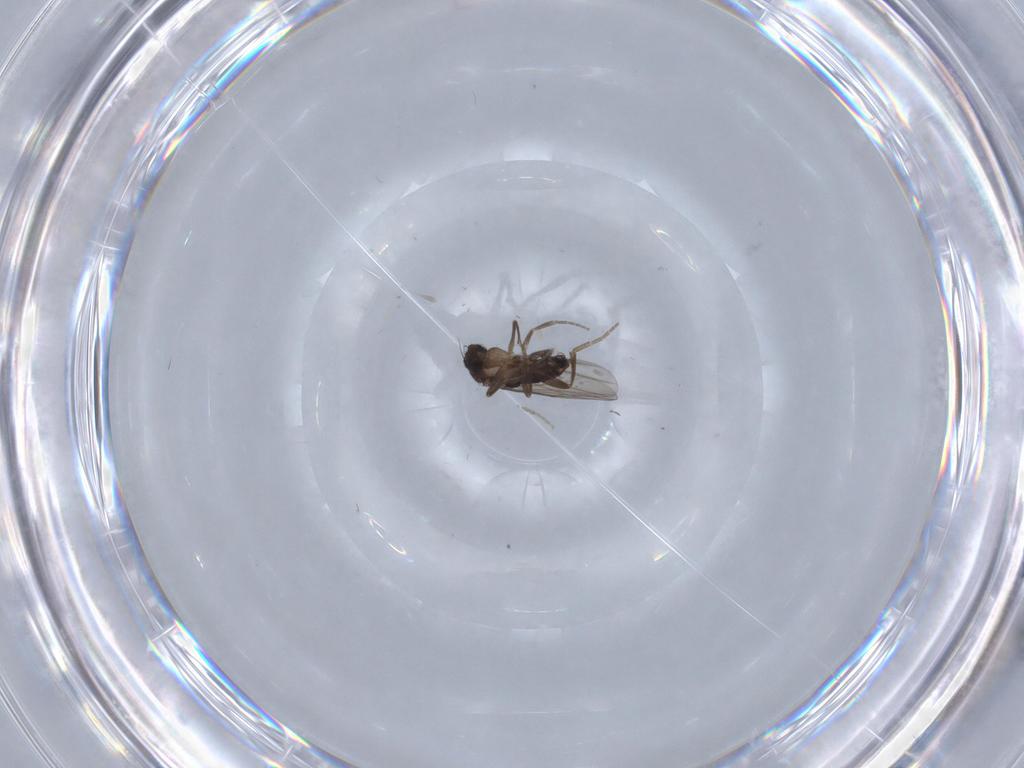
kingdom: Animalia
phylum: Arthropoda
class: Insecta
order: Diptera
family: Phoridae
